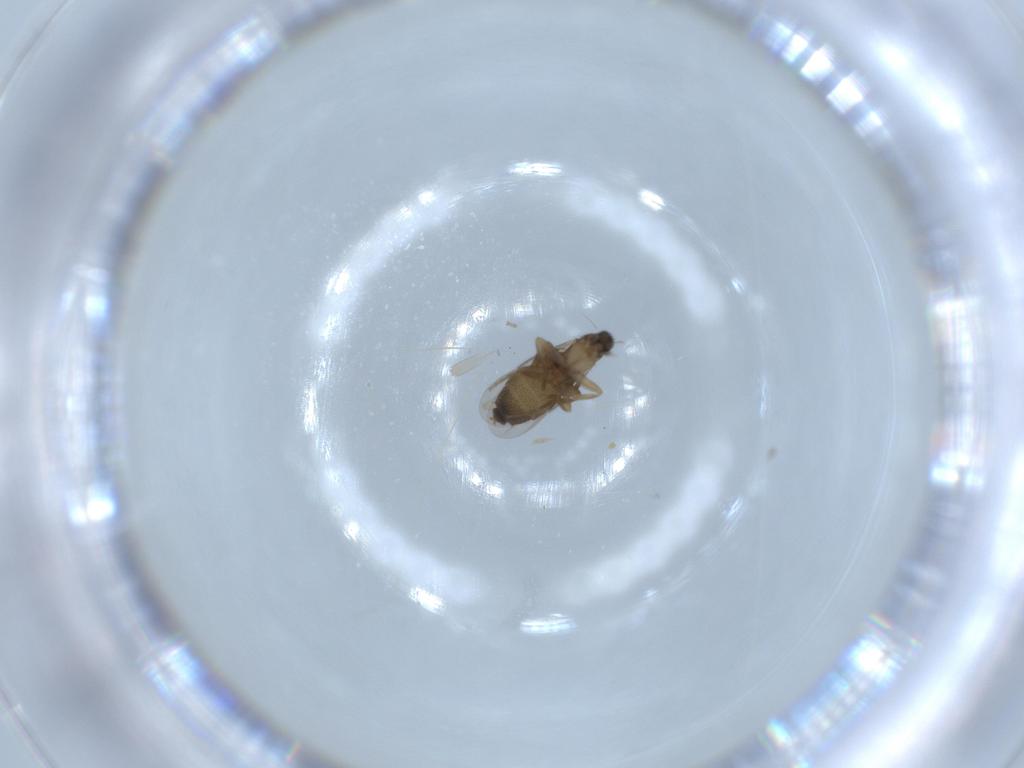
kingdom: Animalia
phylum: Arthropoda
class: Insecta
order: Diptera
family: Phoridae
